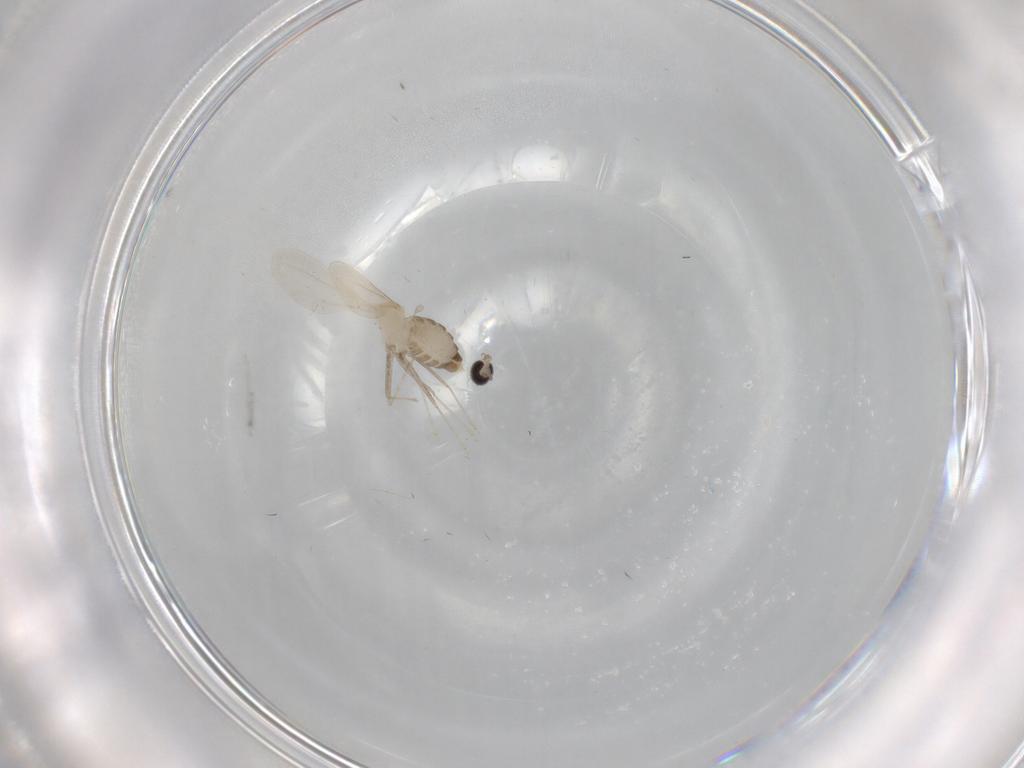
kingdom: Animalia
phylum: Arthropoda
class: Insecta
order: Diptera
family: Cecidomyiidae
